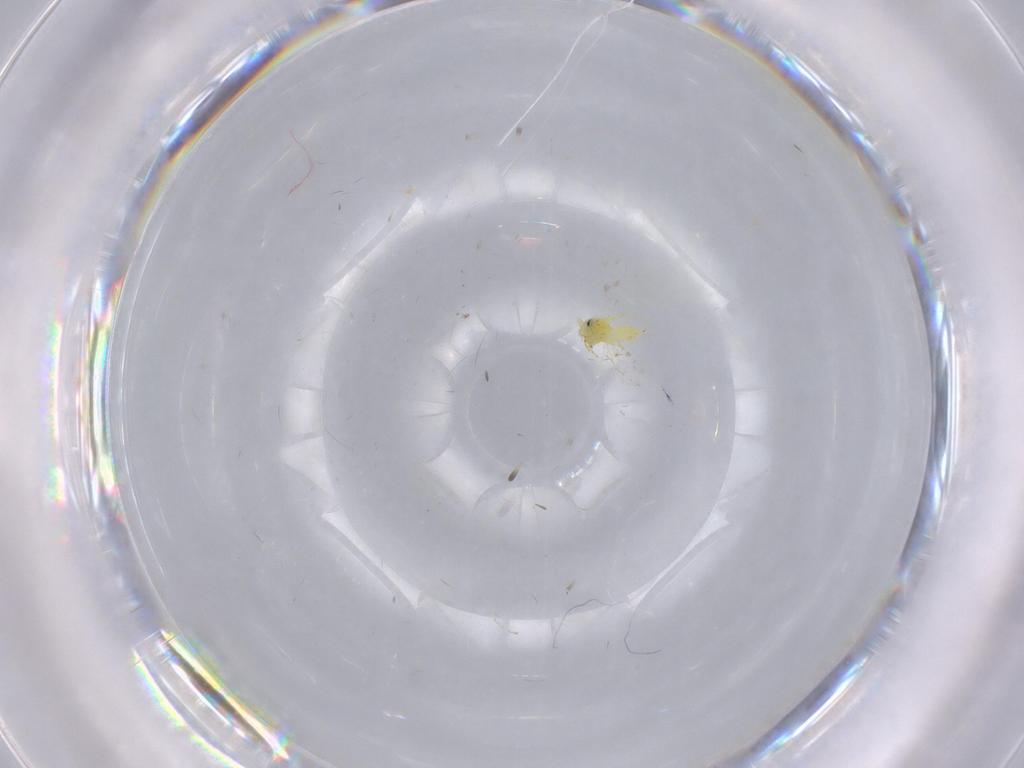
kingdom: Animalia
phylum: Arthropoda
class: Insecta
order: Hemiptera
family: Aleyrodidae
